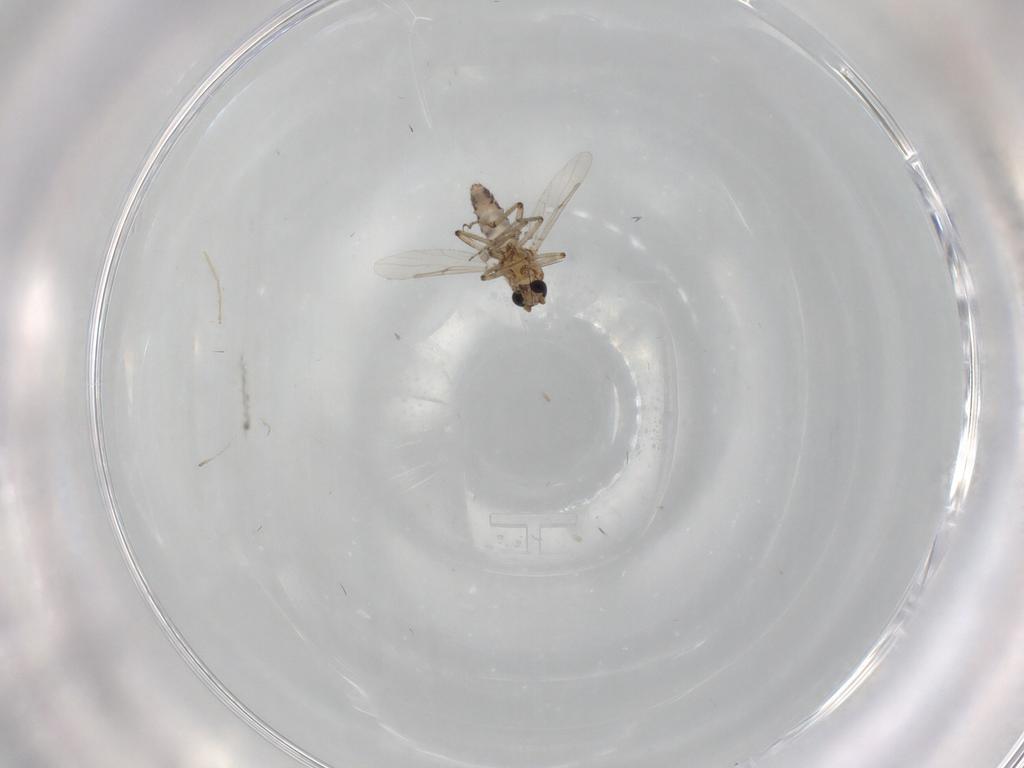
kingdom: Animalia
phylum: Arthropoda
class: Insecta
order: Diptera
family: Chironomidae
